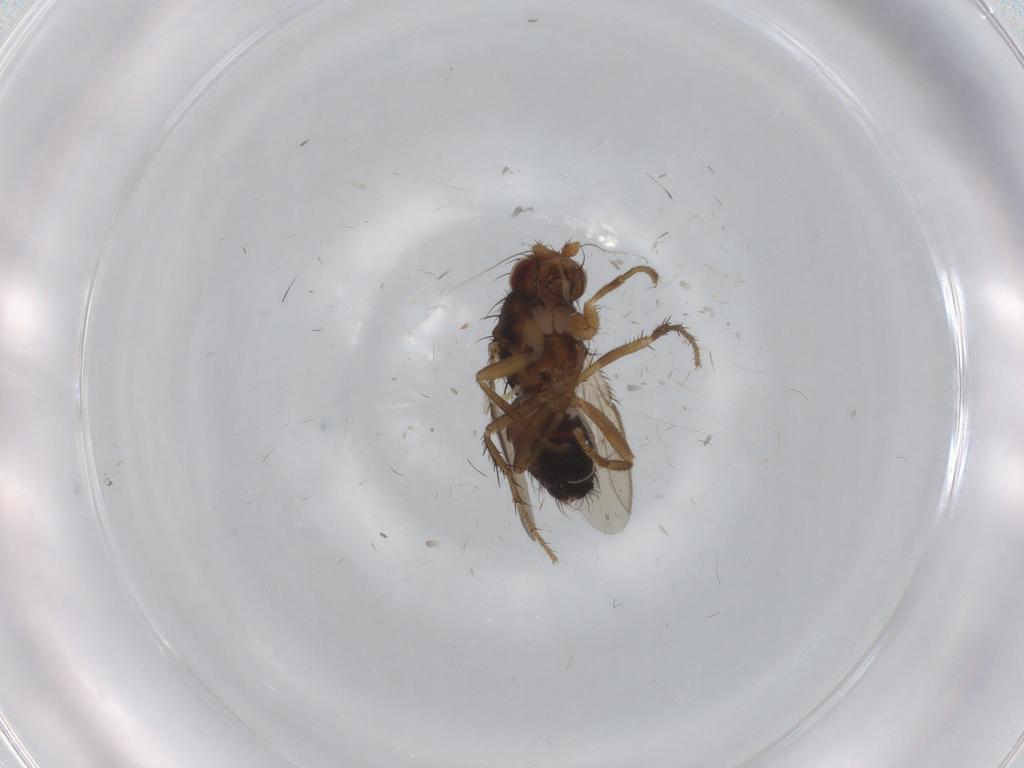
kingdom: Animalia
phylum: Arthropoda
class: Insecta
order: Diptera
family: Sphaeroceridae
